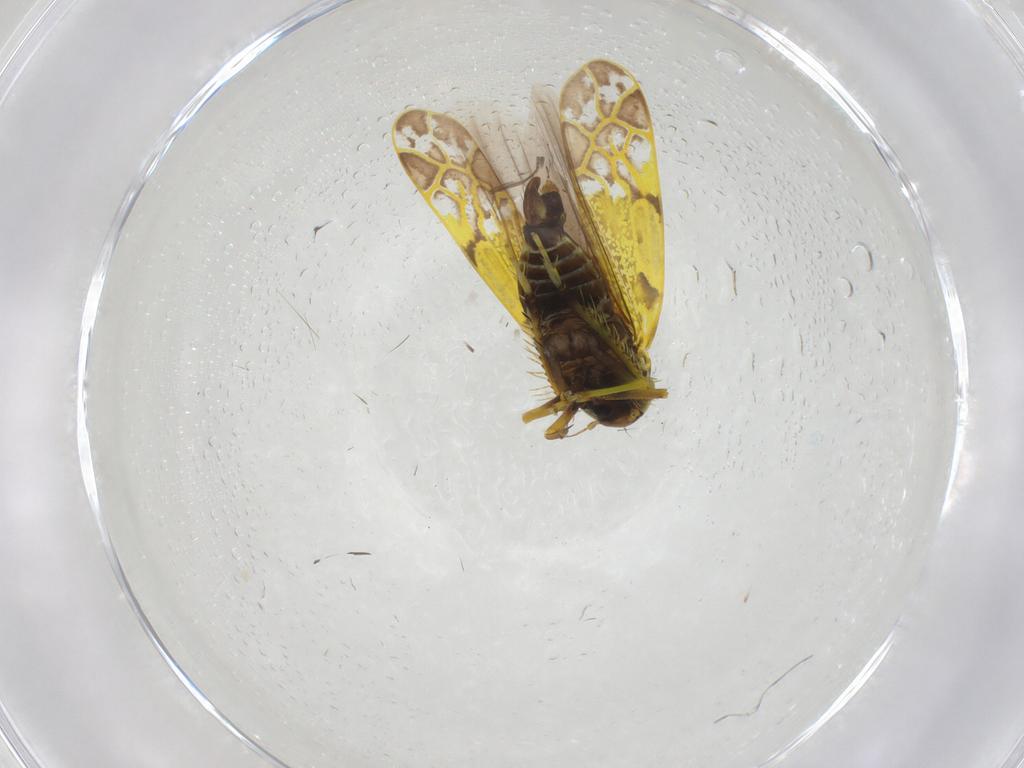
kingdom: Animalia
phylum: Arthropoda
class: Insecta
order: Hemiptera
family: Cicadellidae
